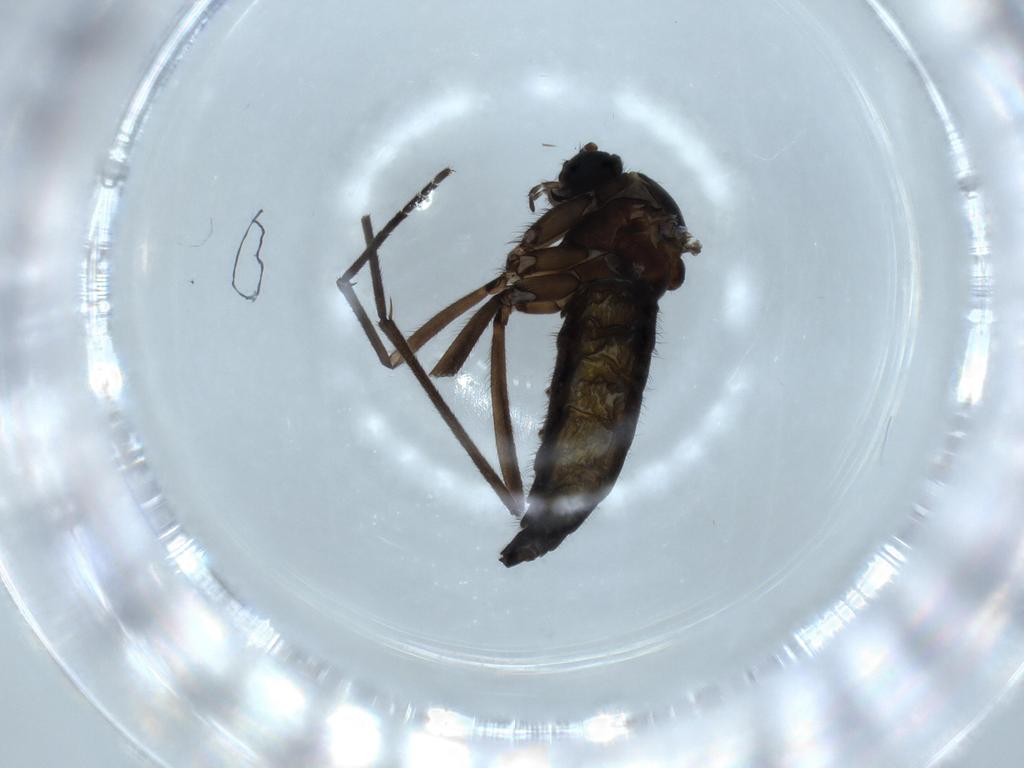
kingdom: Animalia
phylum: Arthropoda
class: Insecta
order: Diptera
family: Sciaridae
